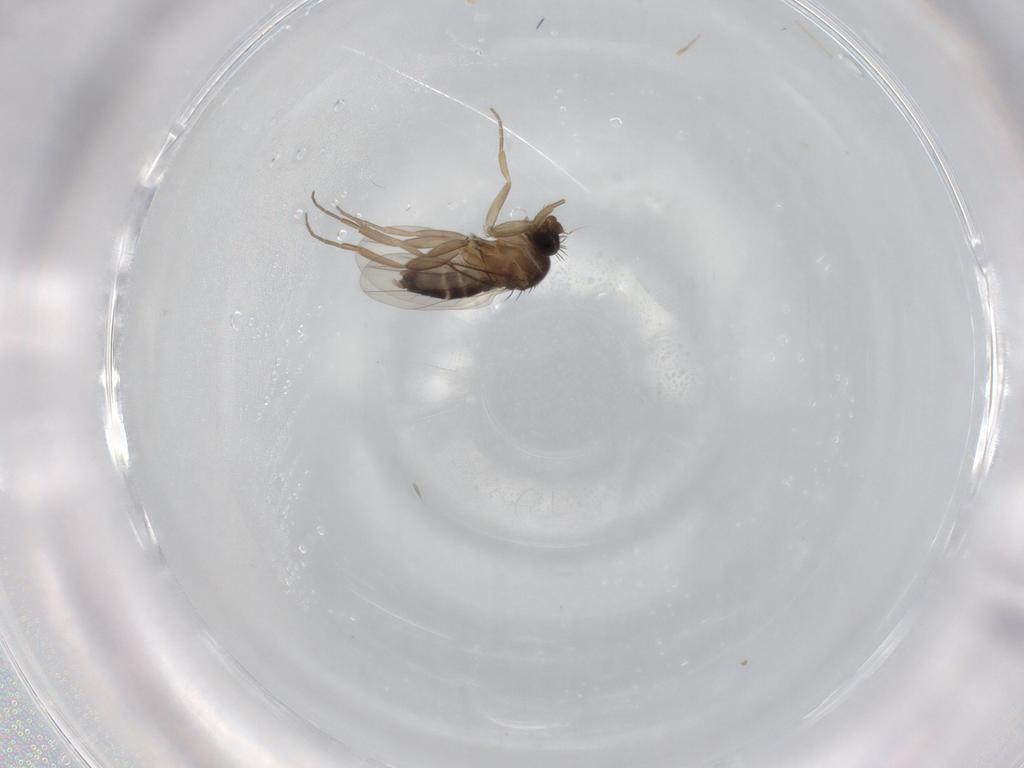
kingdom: Animalia
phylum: Arthropoda
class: Insecta
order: Diptera
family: Phoridae
